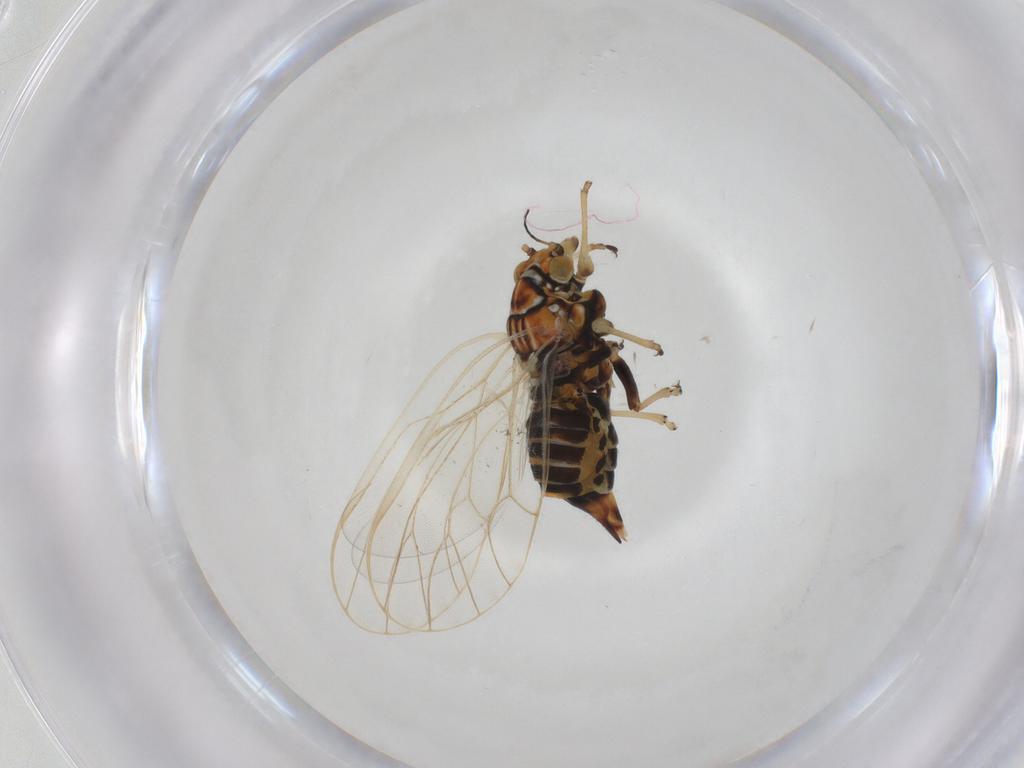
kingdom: Animalia
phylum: Arthropoda
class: Insecta
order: Hemiptera
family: Psyllidae
